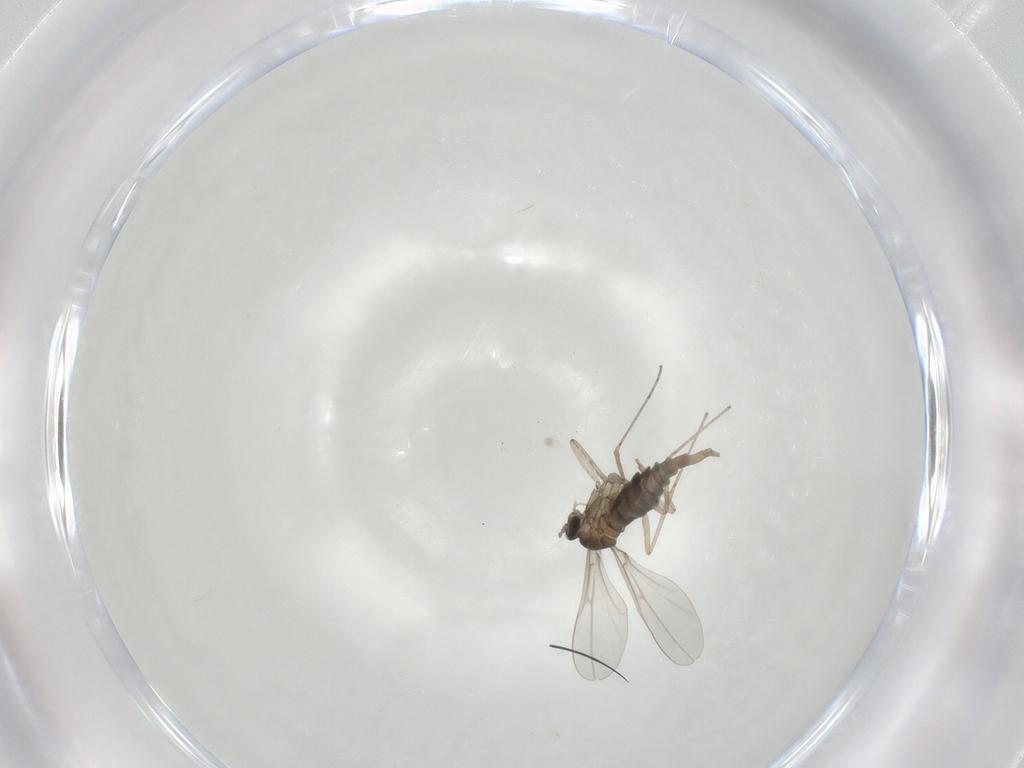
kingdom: Animalia
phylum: Arthropoda
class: Insecta
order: Diptera
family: Cecidomyiidae
